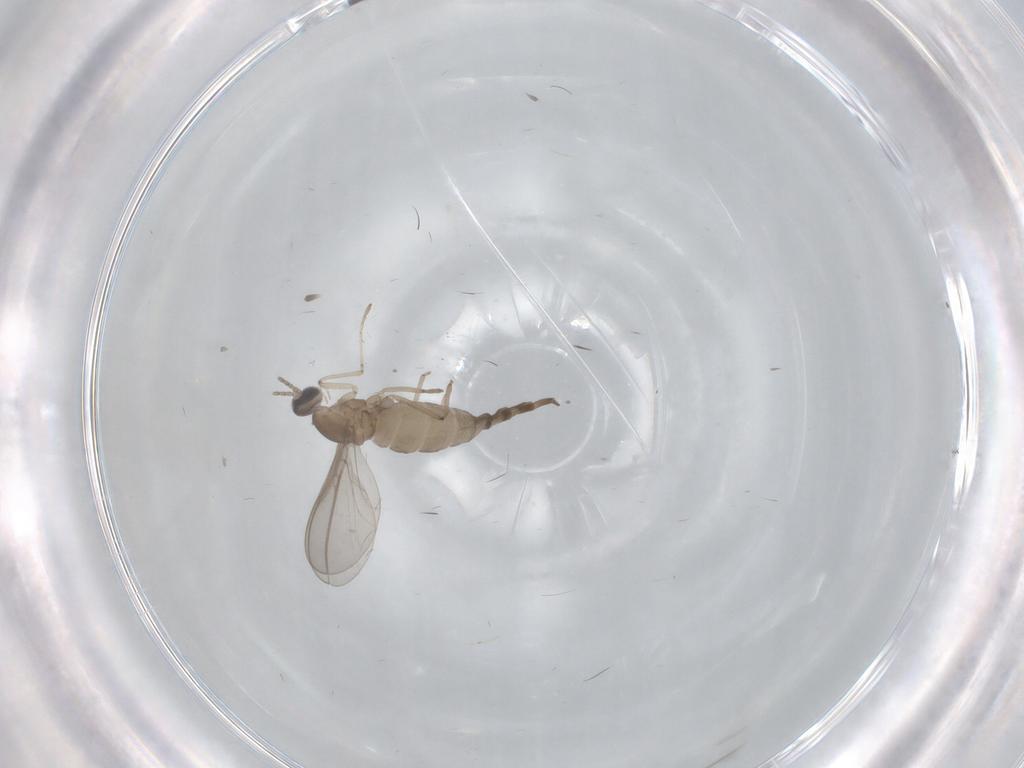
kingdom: Animalia
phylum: Arthropoda
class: Insecta
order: Diptera
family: Cecidomyiidae
